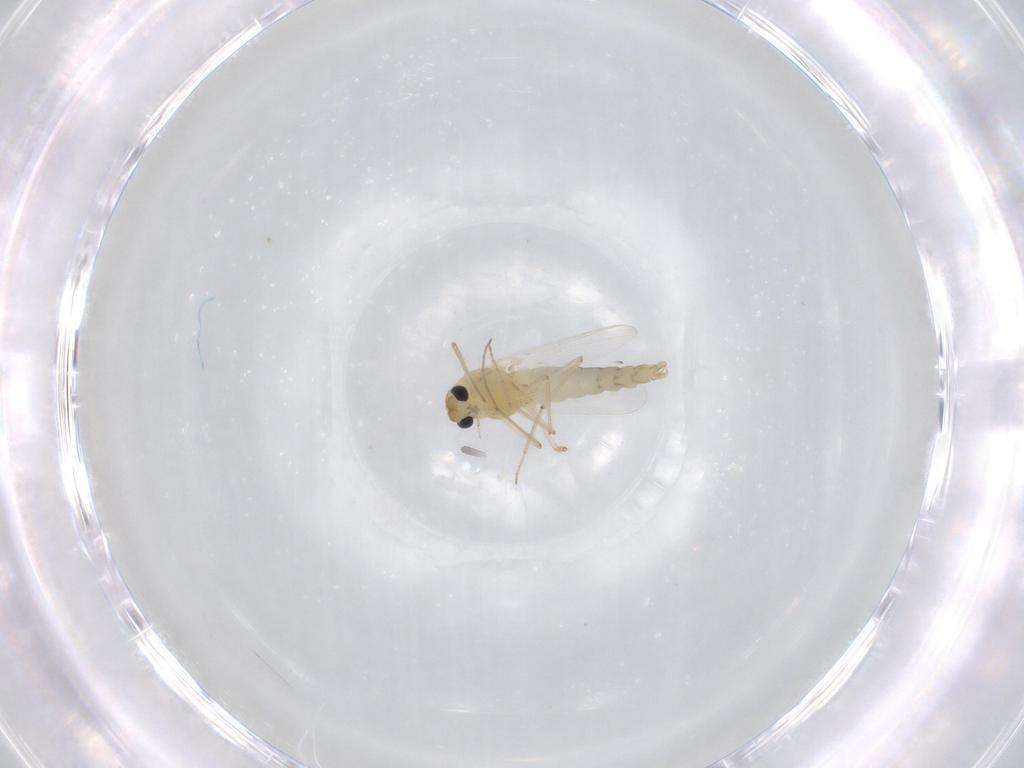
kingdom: Animalia
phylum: Arthropoda
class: Insecta
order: Diptera
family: Chironomidae
